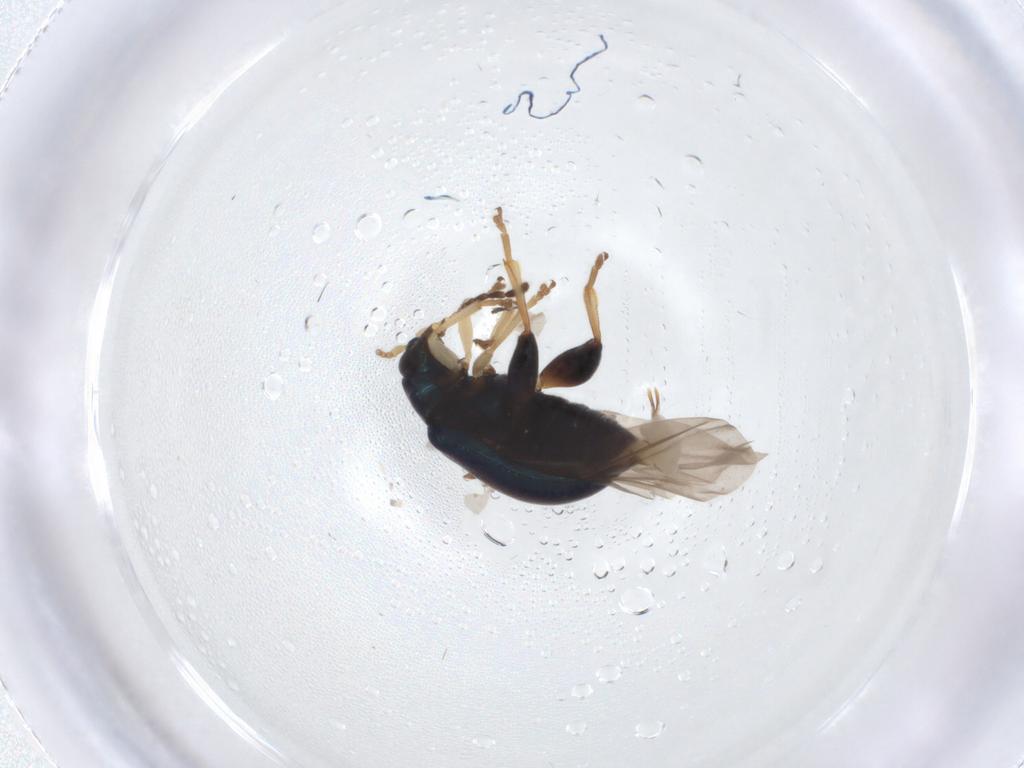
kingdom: Animalia
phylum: Arthropoda
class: Insecta
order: Coleoptera
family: Chrysomelidae
